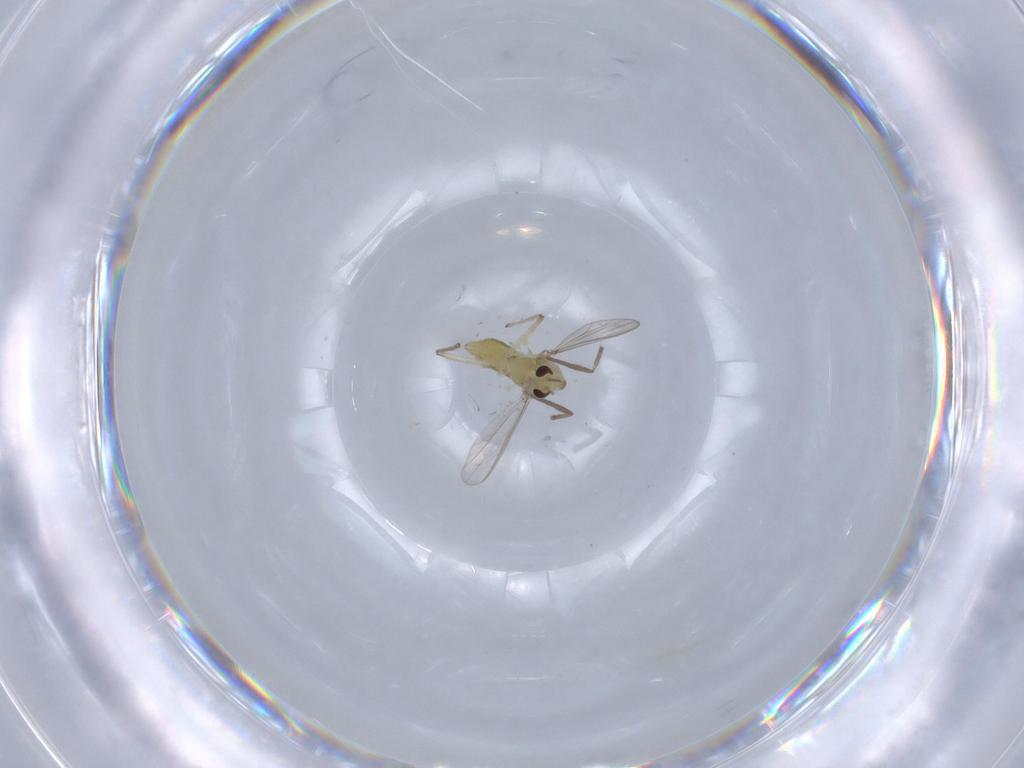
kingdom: Animalia
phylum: Arthropoda
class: Insecta
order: Diptera
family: Chironomidae
